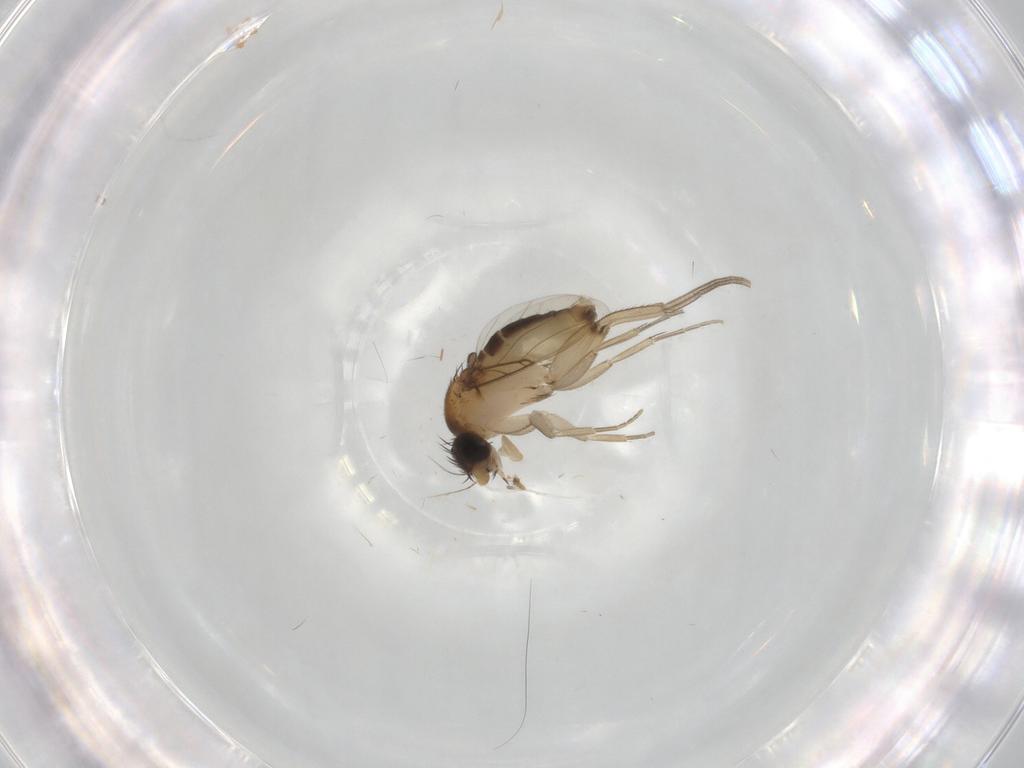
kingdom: Animalia
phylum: Arthropoda
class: Insecta
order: Diptera
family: Phoridae
